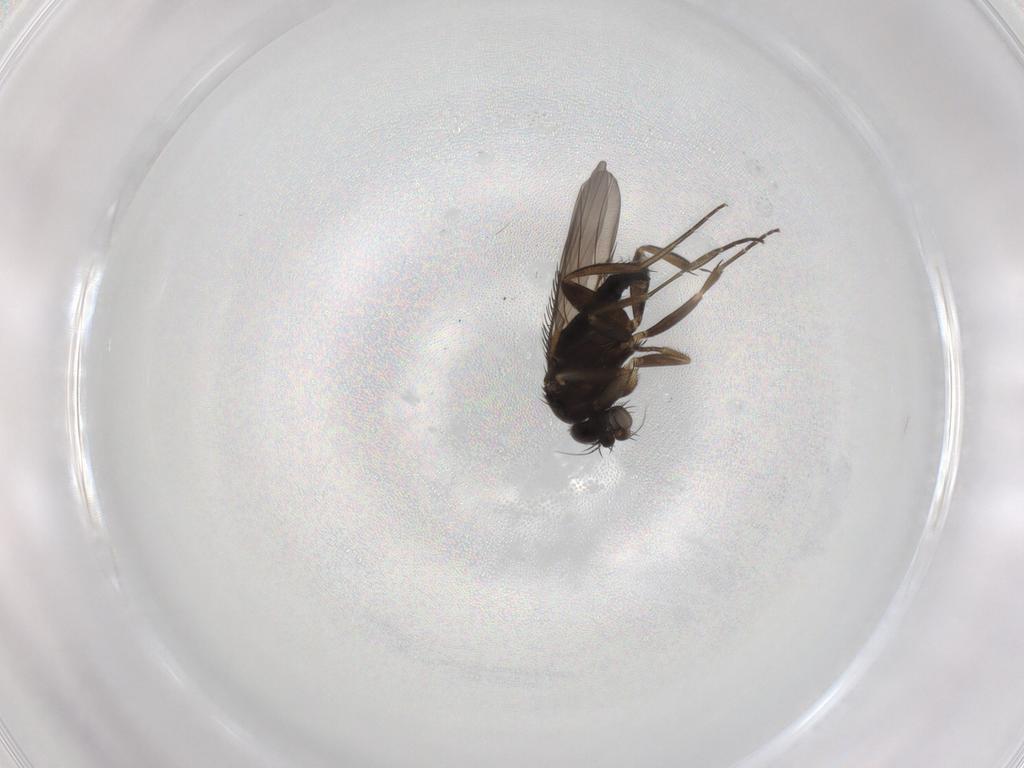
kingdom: Animalia
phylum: Arthropoda
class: Insecta
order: Diptera
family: Phoridae
